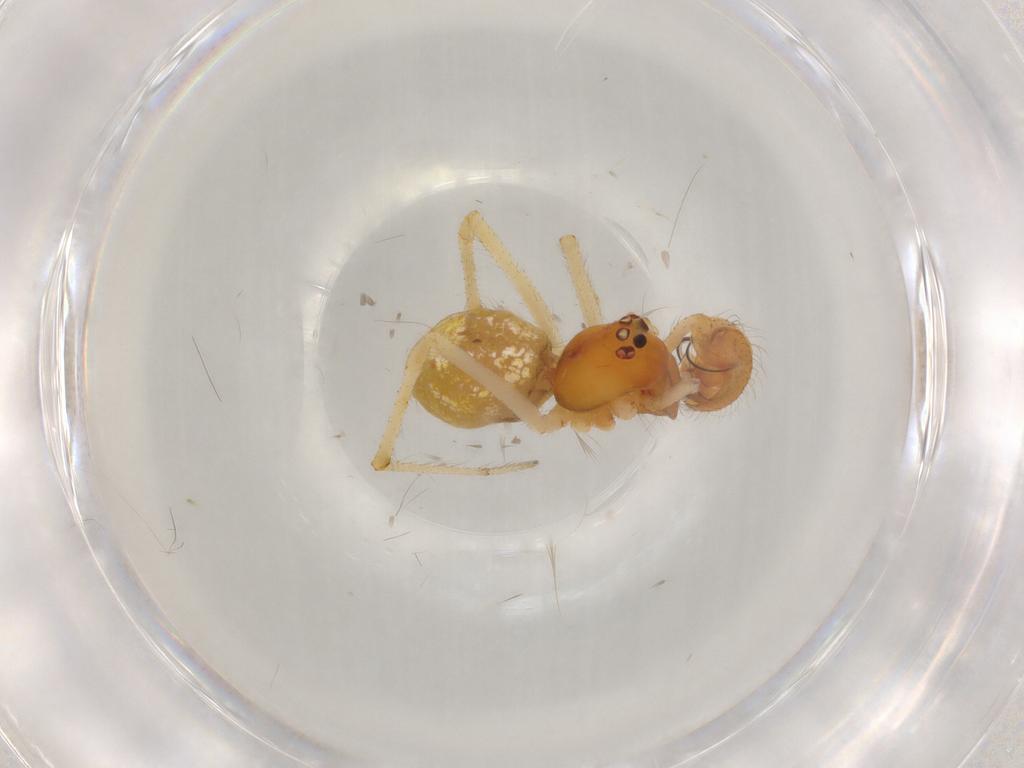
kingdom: Animalia
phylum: Arthropoda
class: Arachnida
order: Araneae
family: Theridiidae
